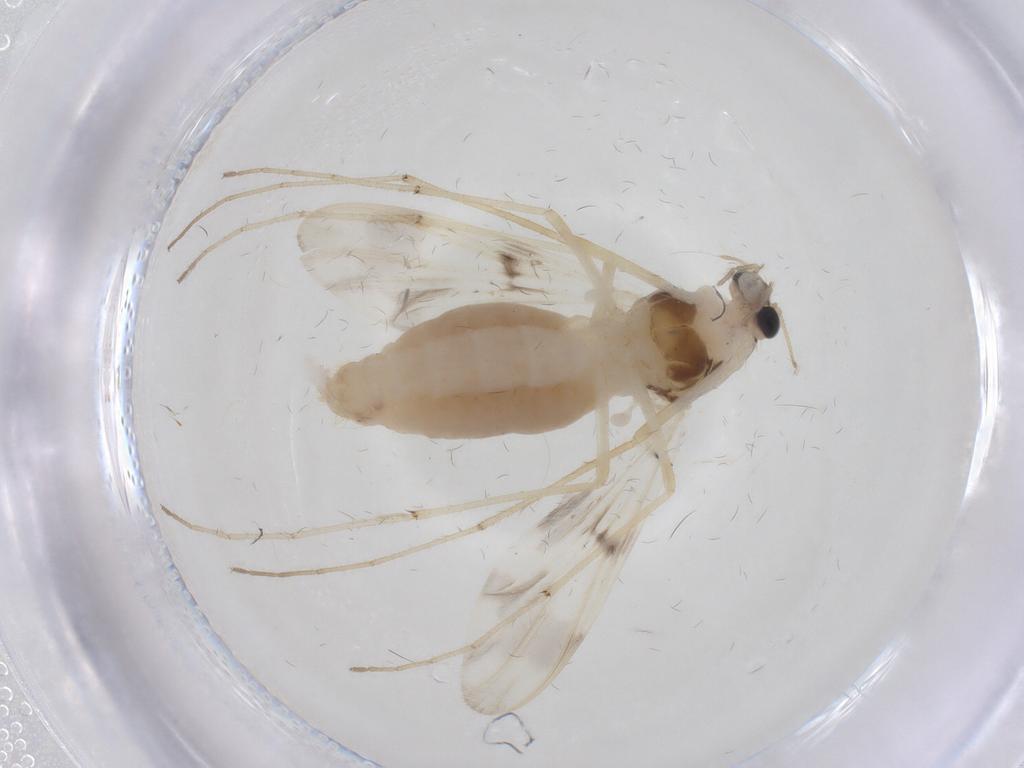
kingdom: Animalia
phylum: Arthropoda
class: Insecta
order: Diptera
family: Chironomidae
